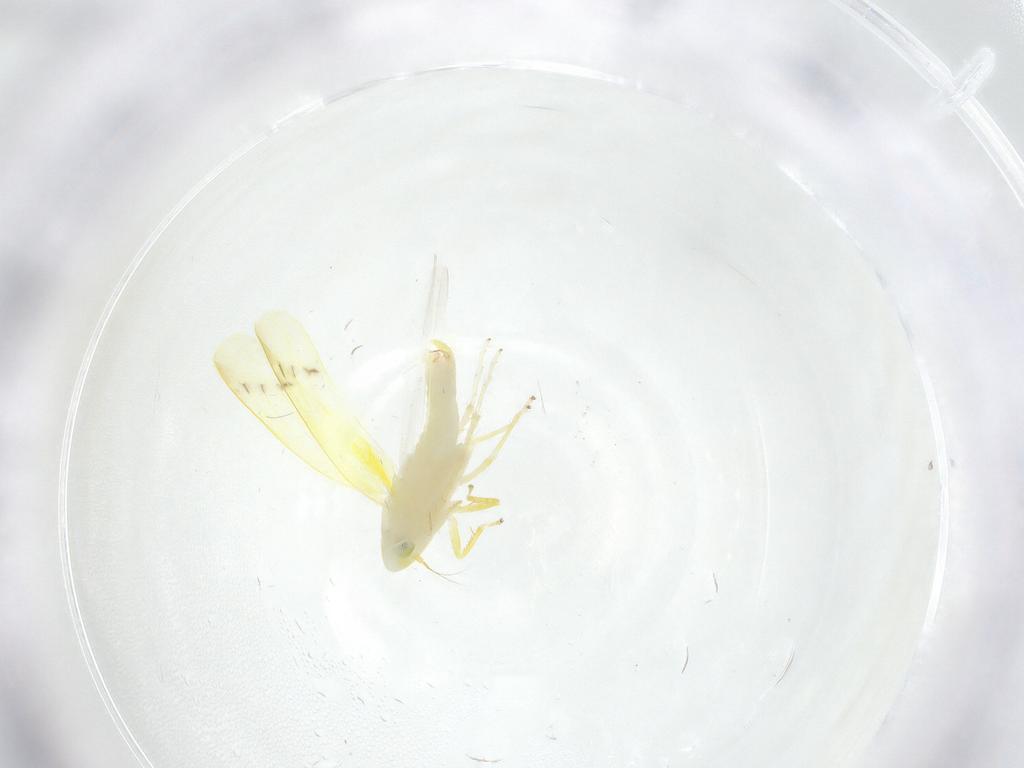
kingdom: Animalia
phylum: Arthropoda
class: Insecta
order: Hemiptera
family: Cicadellidae
